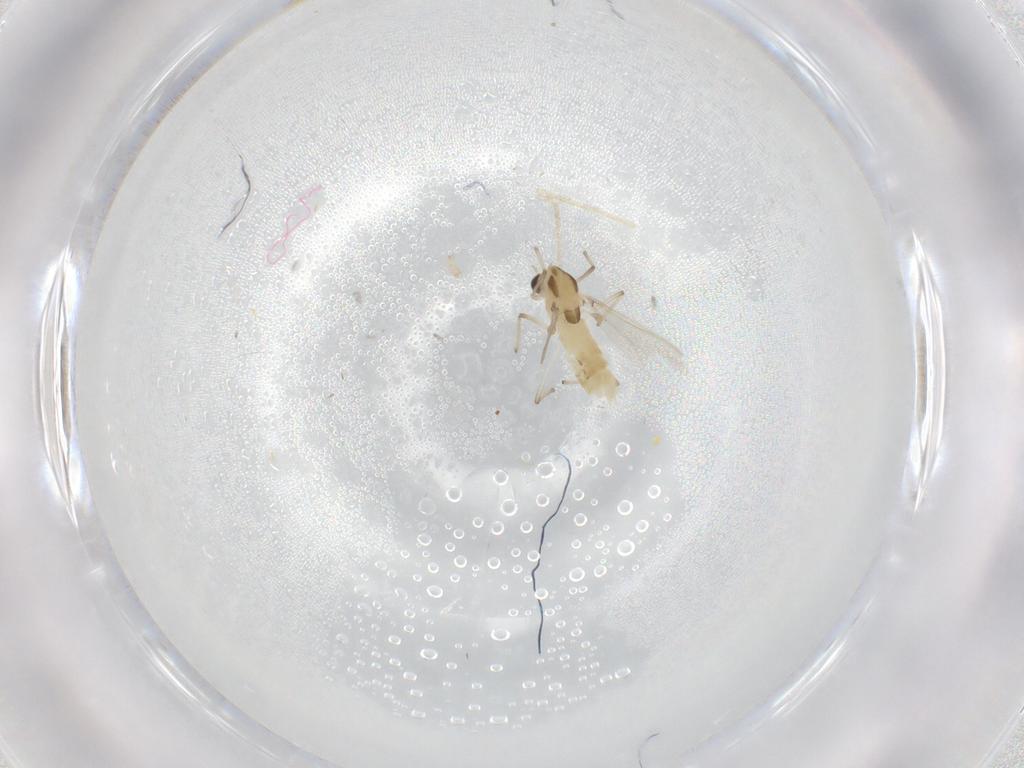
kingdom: Animalia
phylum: Arthropoda
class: Insecta
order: Diptera
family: Chironomidae
